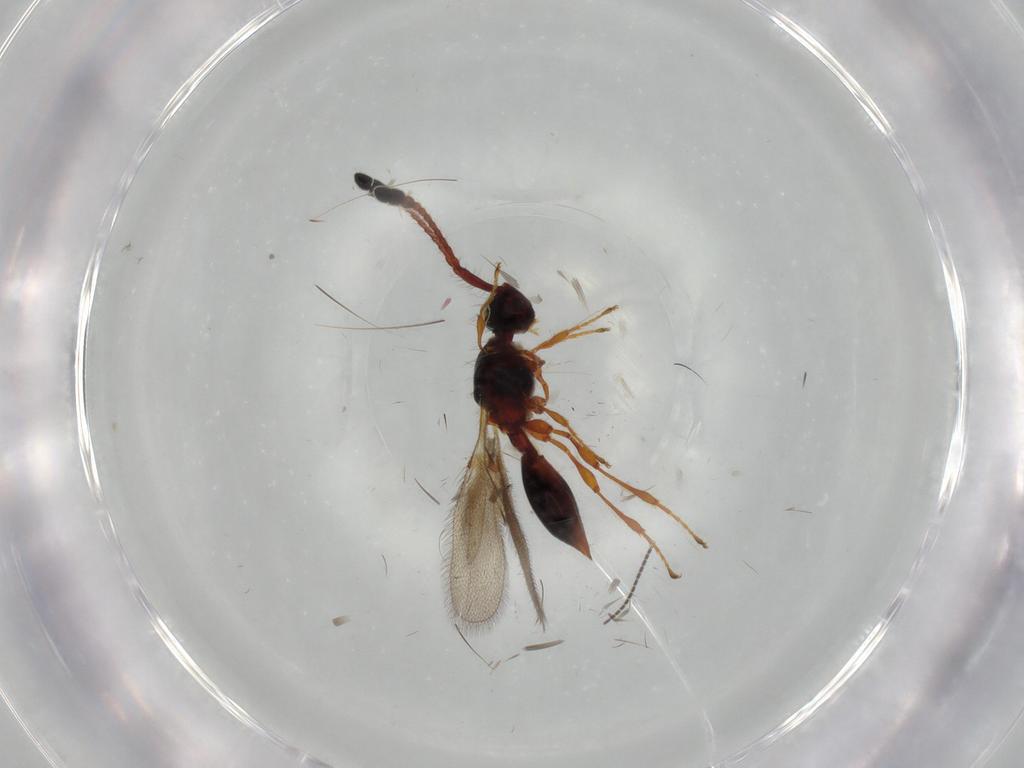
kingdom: Animalia
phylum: Arthropoda
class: Insecta
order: Hymenoptera
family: Diapriidae
